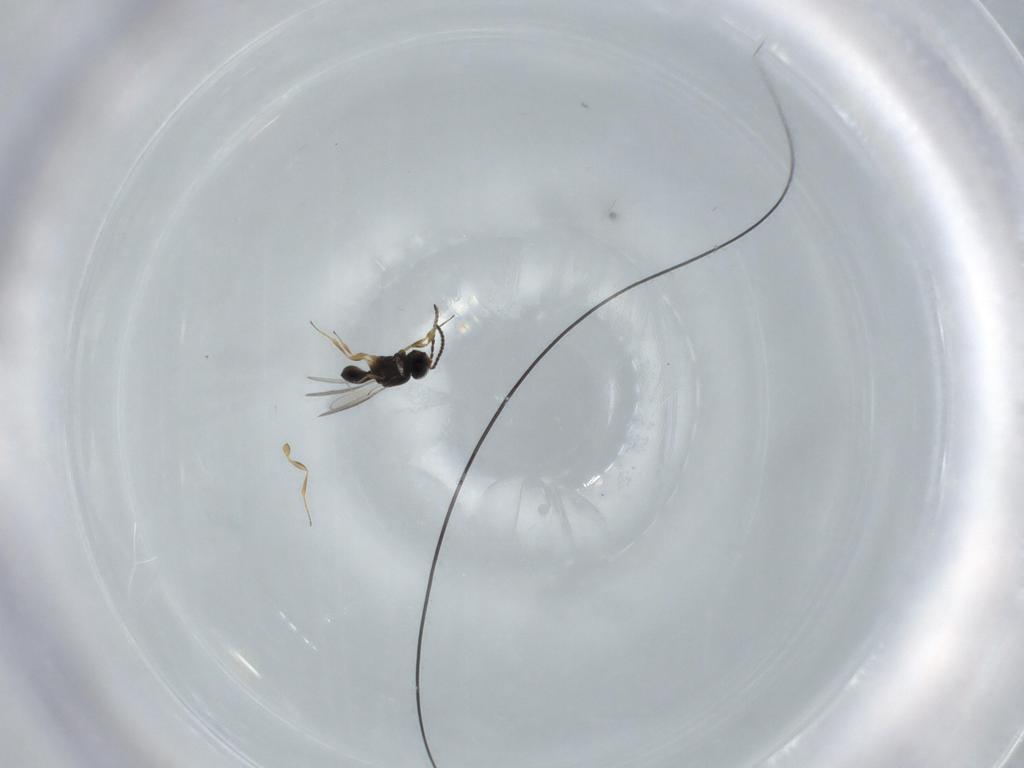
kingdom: Animalia
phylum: Arthropoda
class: Insecta
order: Hymenoptera
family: Scelionidae
